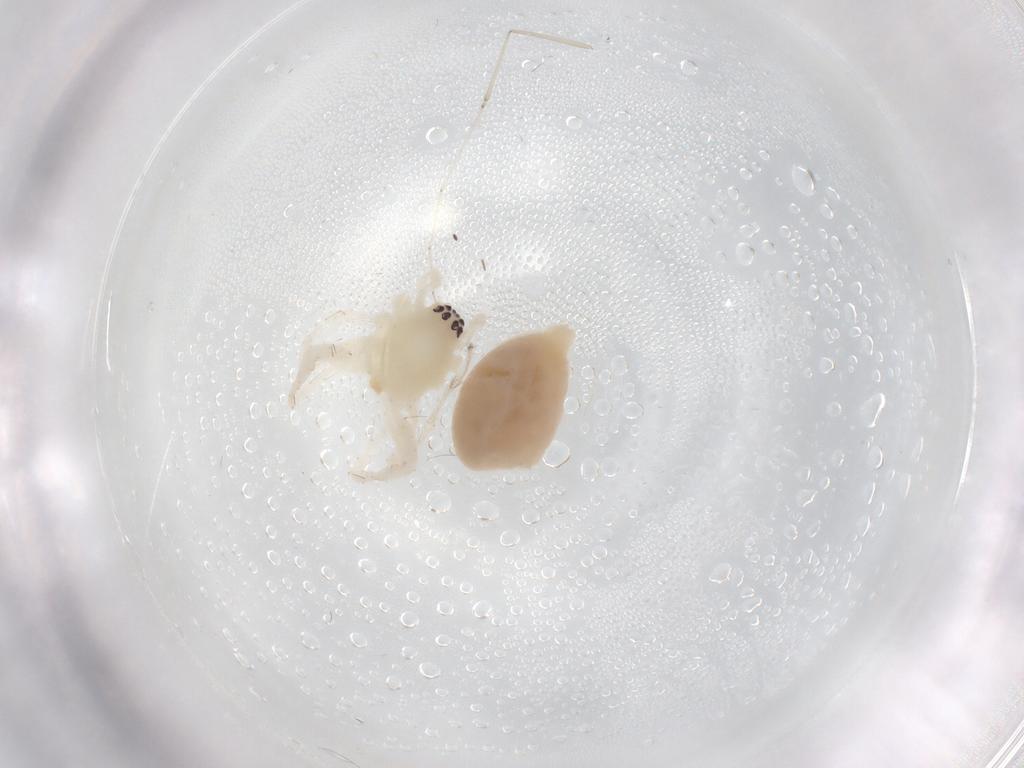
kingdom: Animalia
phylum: Arthropoda
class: Arachnida
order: Araneae
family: Anyphaenidae
